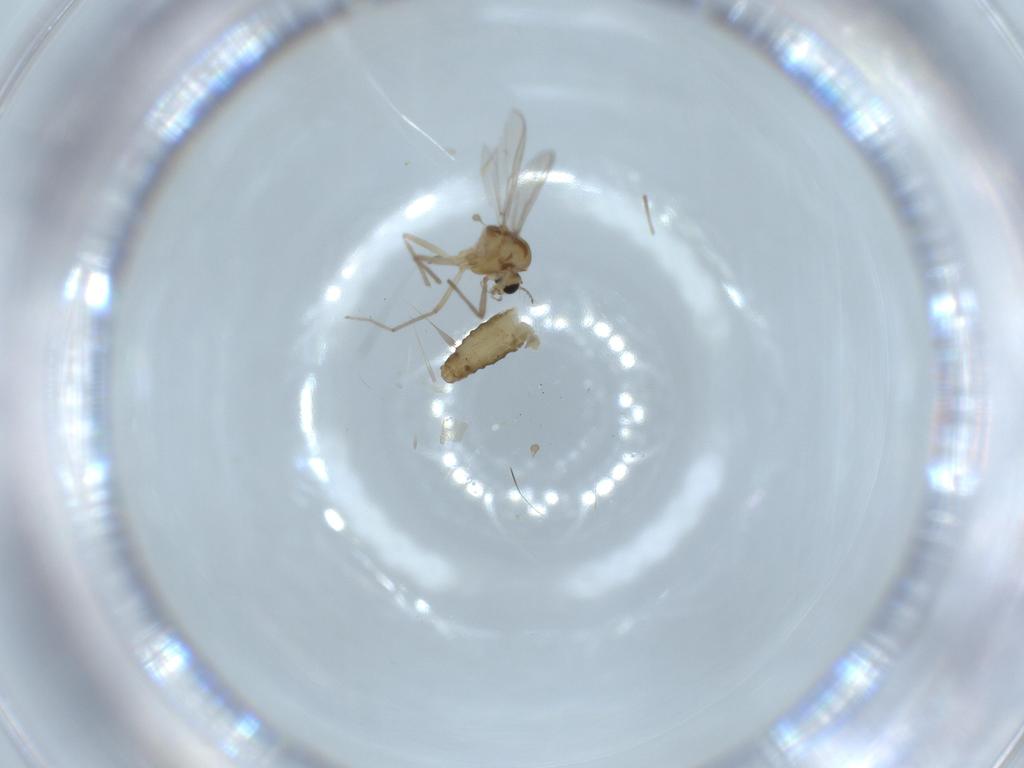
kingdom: Animalia
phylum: Arthropoda
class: Insecta
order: Diptera
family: Chironomidae
